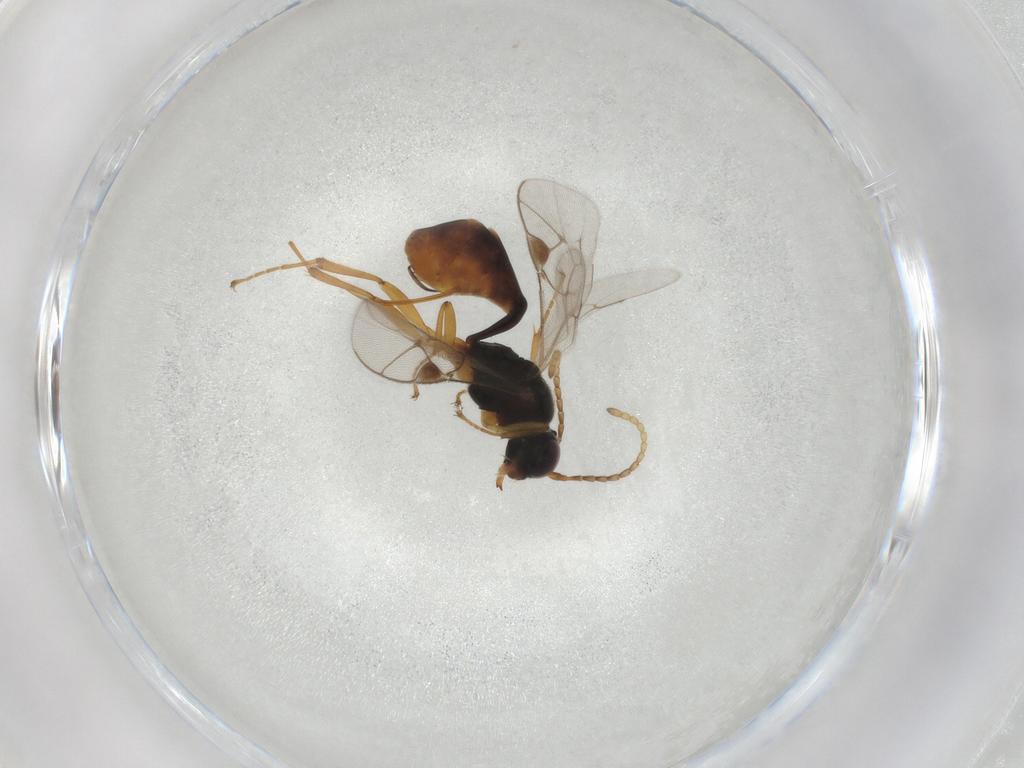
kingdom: Animalia
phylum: Arthropoda
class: Insecta
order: Hymenoptera
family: Ichneumonidae
